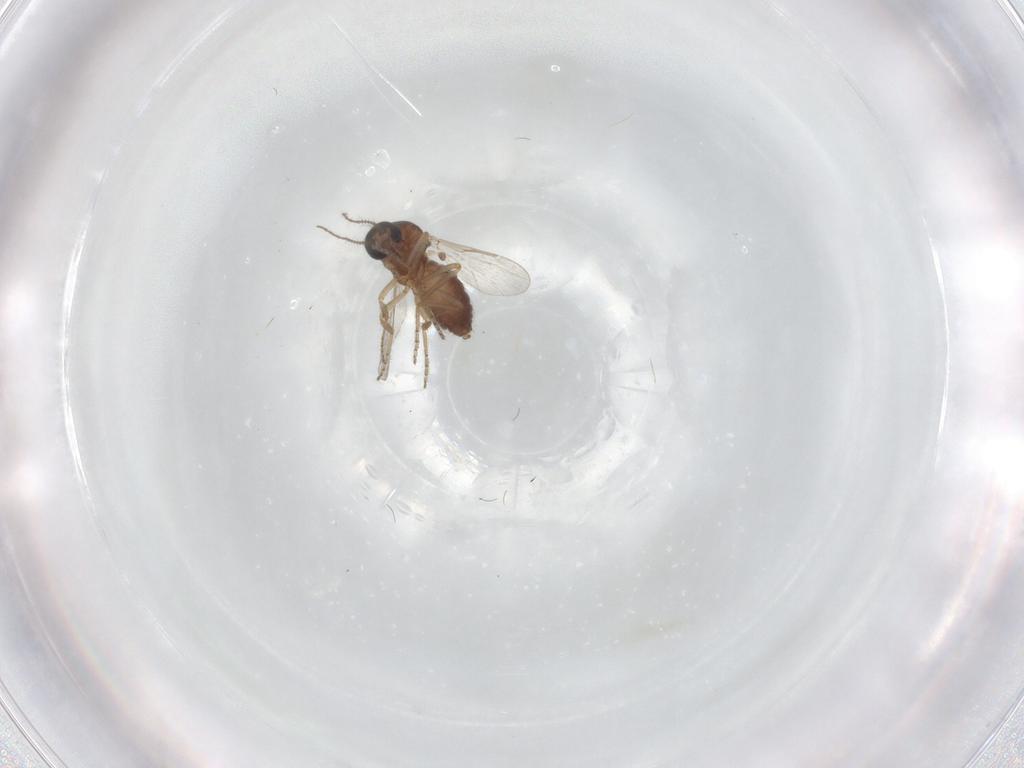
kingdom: Animalia
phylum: Arthropoda
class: Insecta
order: Diptera
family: Ceratopogonidae
